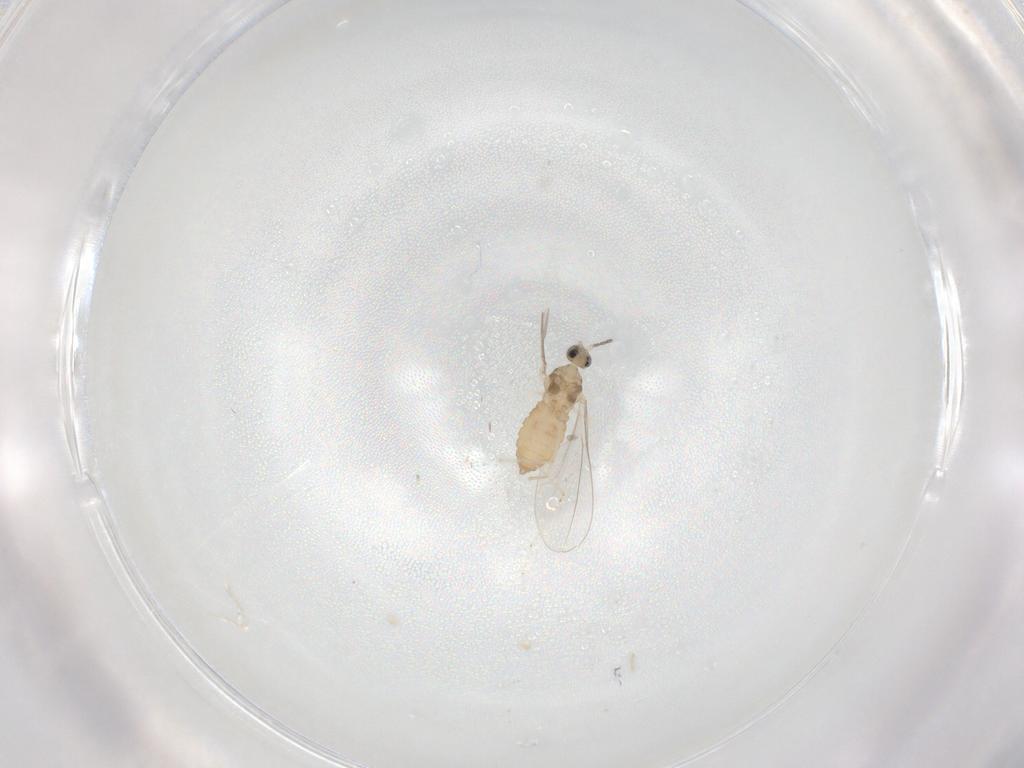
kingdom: Animalia
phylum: Arthropoda
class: Insecta
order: Diptera
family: Cecidomyiidae
